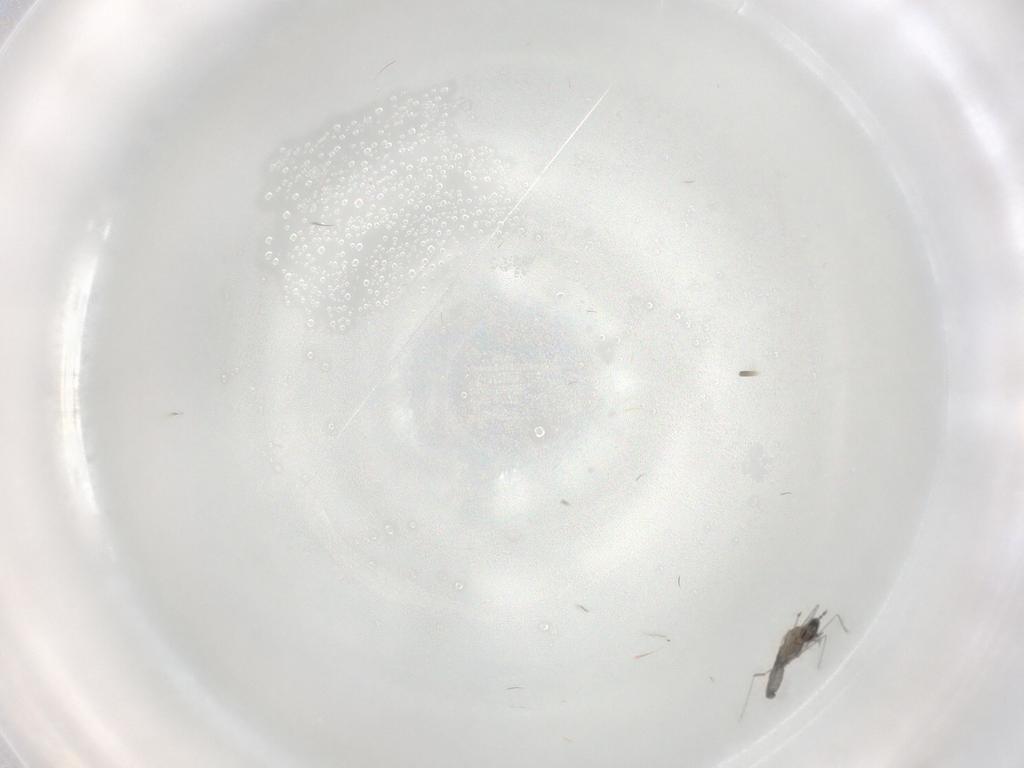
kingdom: Animalia
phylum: Arthropoda
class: Insecta
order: Diptera
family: Cecidomyiidae
